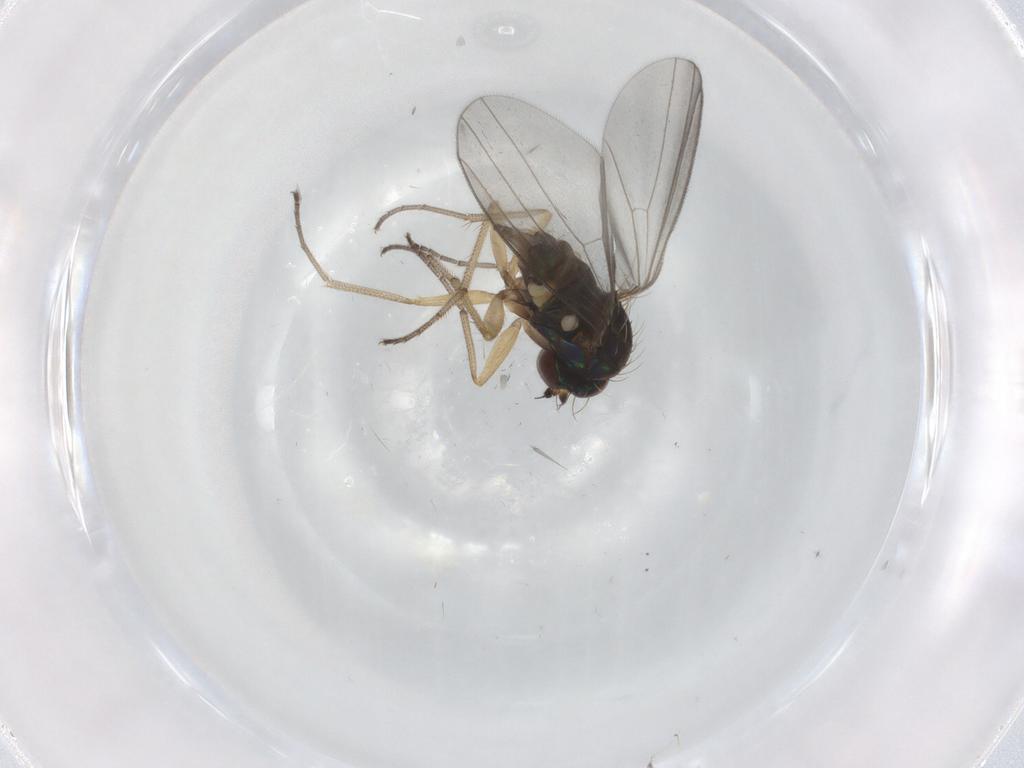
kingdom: Animalia
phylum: Arthropoda
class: Insecta
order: Diptera
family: Dolichopodidae
